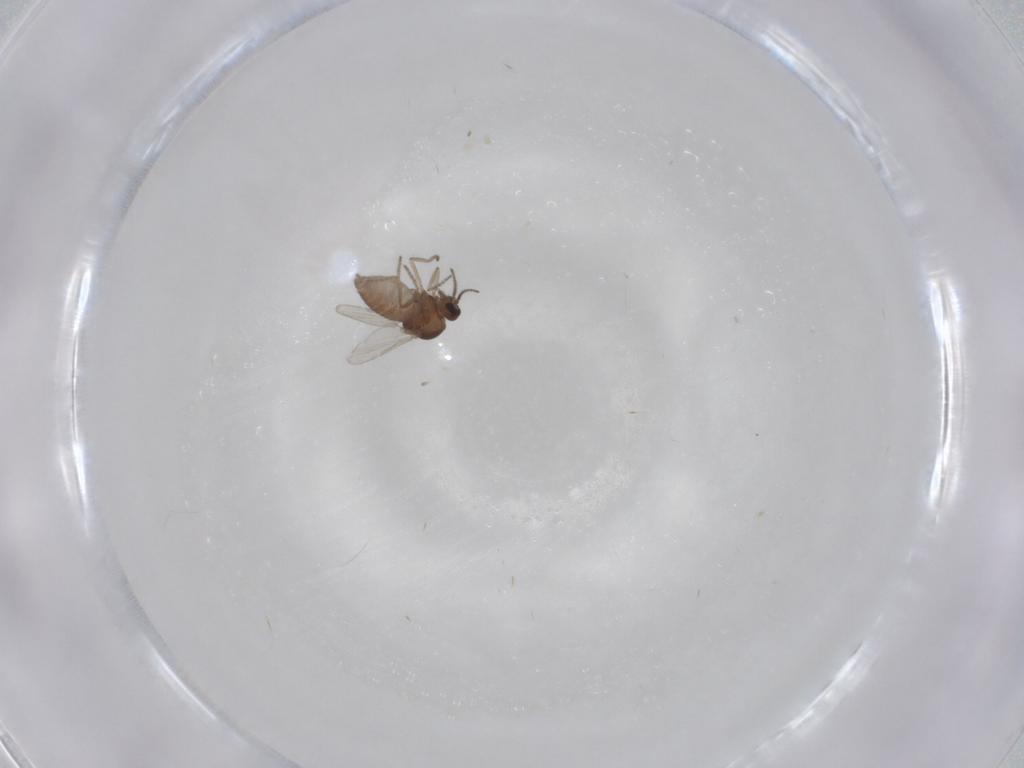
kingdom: Animalia
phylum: Arthropoda
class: Insecta
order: Diptera
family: Ceratopogonidae
